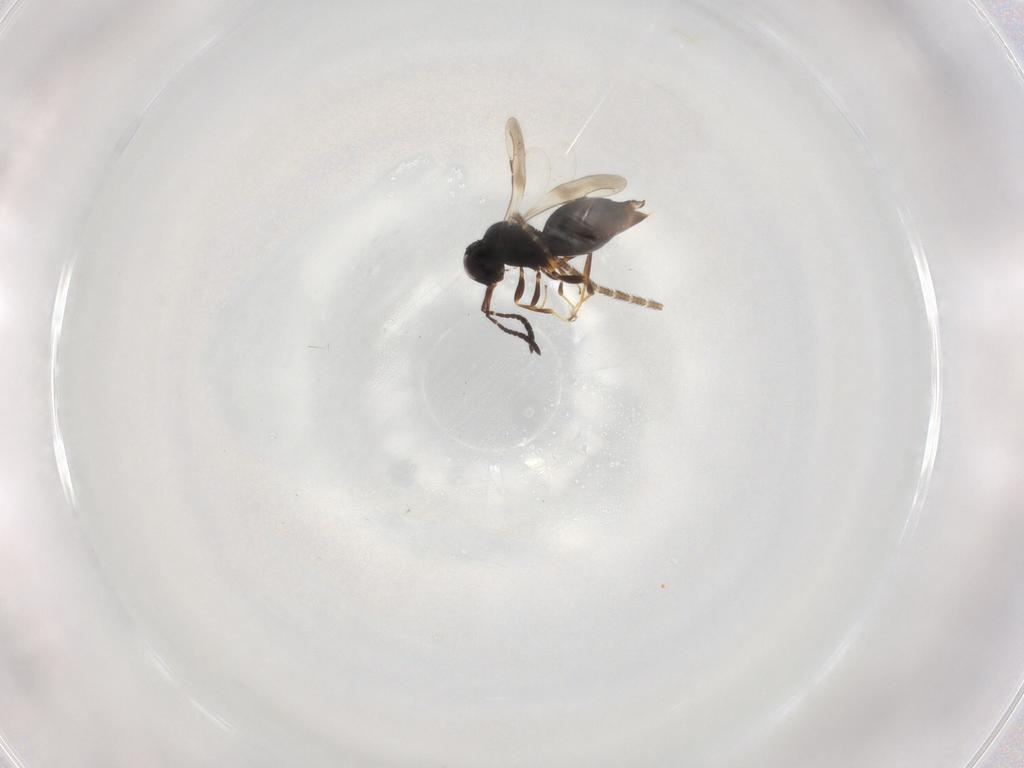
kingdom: Animalia
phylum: Arthropoda
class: Insecta
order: Hymenoptera
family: Ceraphronidae
